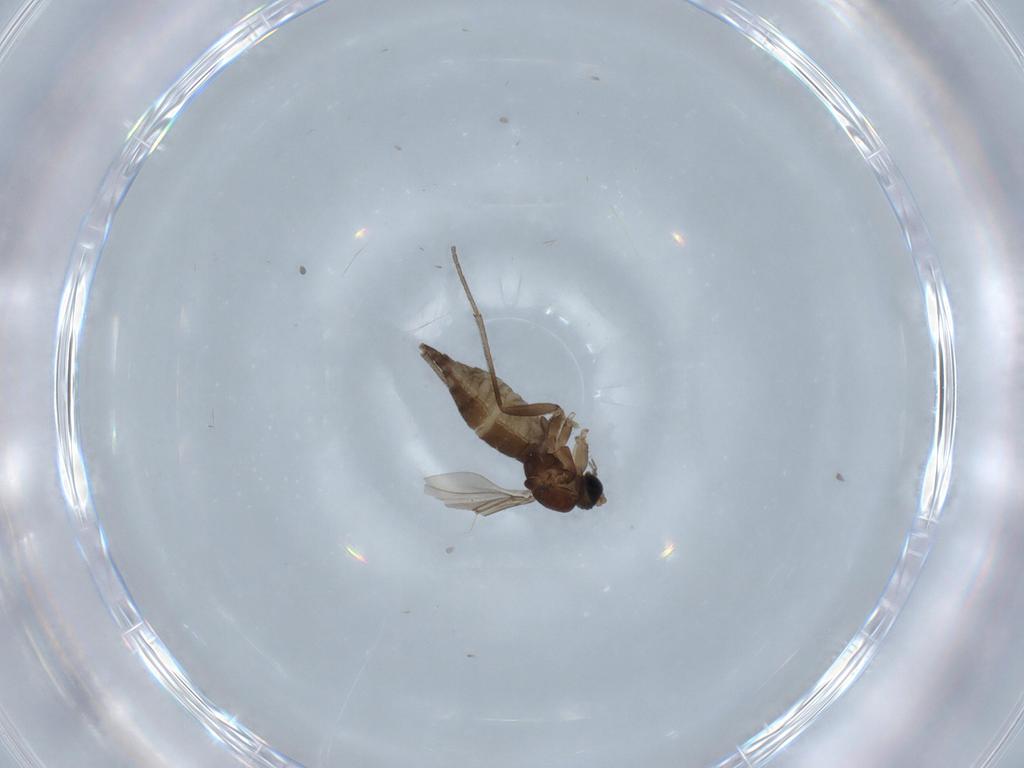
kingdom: Animalia
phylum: Arthropoda
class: Insecta
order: Diptera
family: Sciaridae
